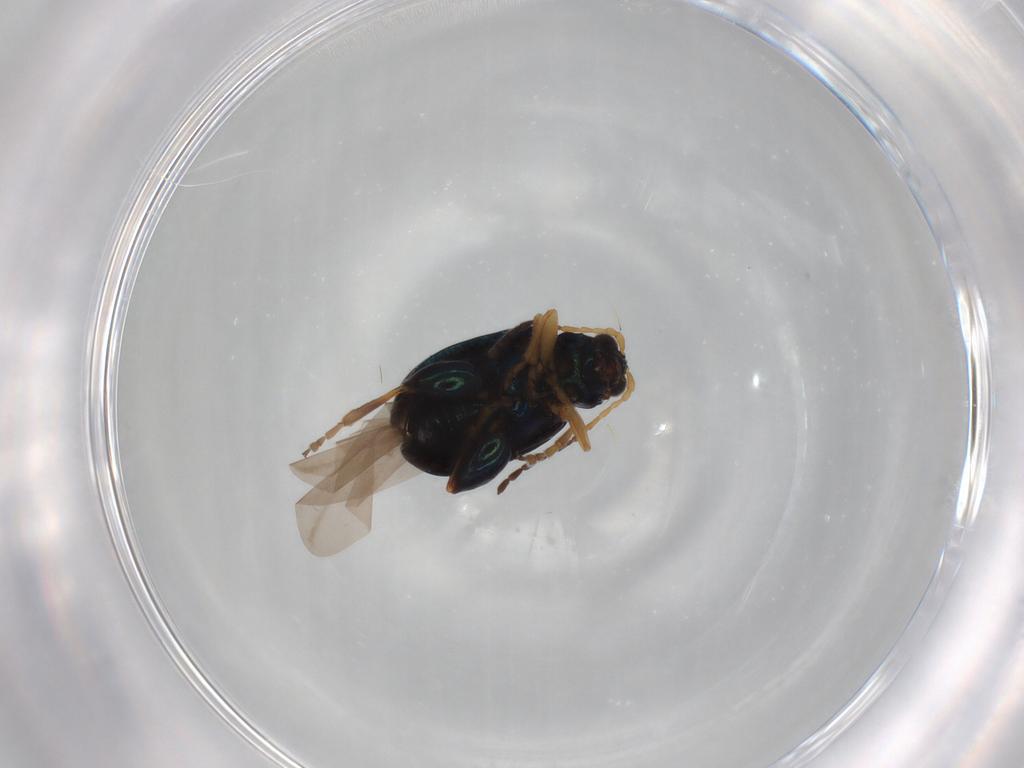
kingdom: Animalia
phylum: Arthropoda
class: Insecta
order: Coleoptera
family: Chrysomelidae
